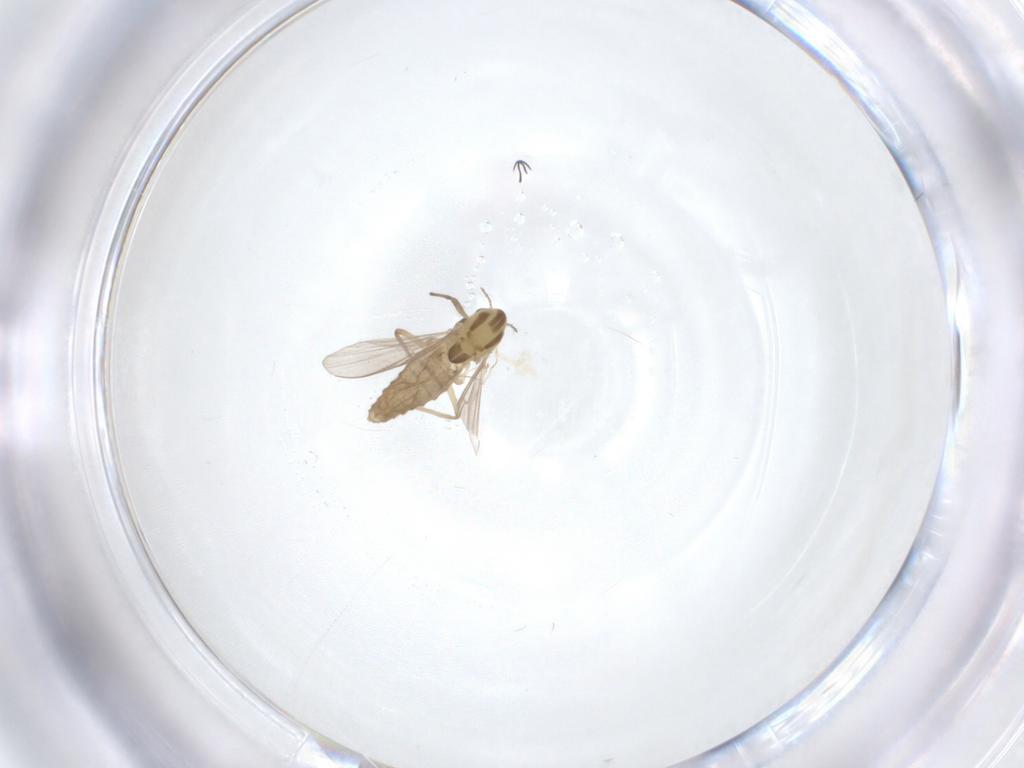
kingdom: Animalia
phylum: Arthropoda
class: Insecta
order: Diptera
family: Chironomidae
